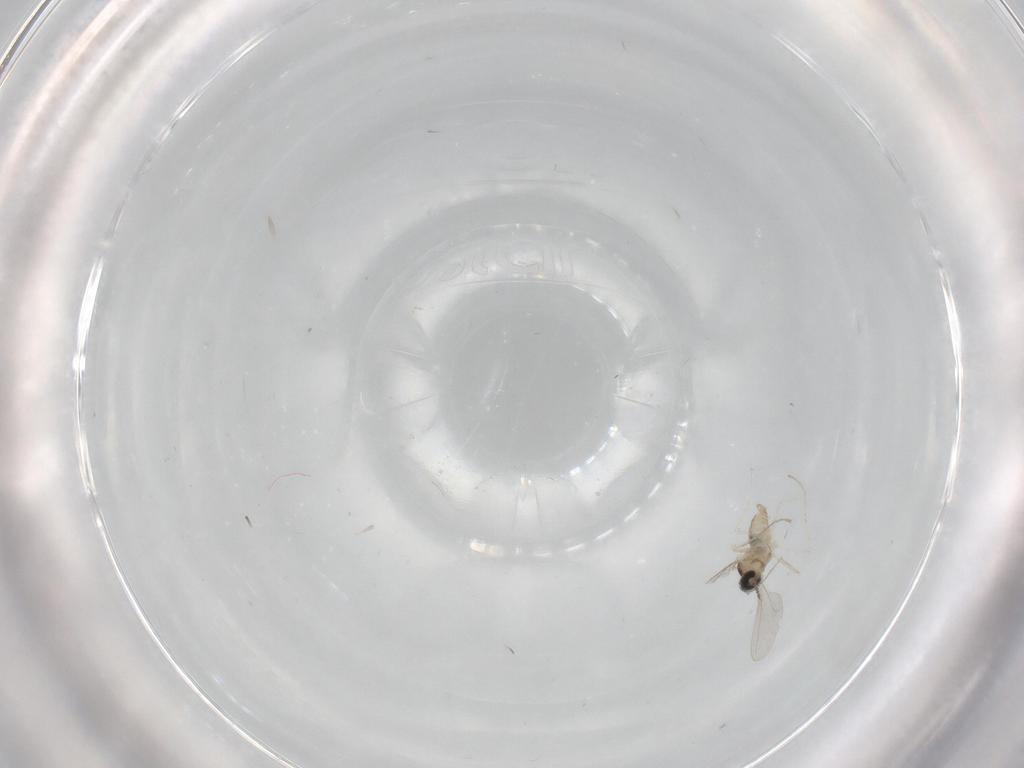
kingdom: Animalia
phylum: Arthropoda
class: Insecta
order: Diptera
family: Cecidomyiidae
